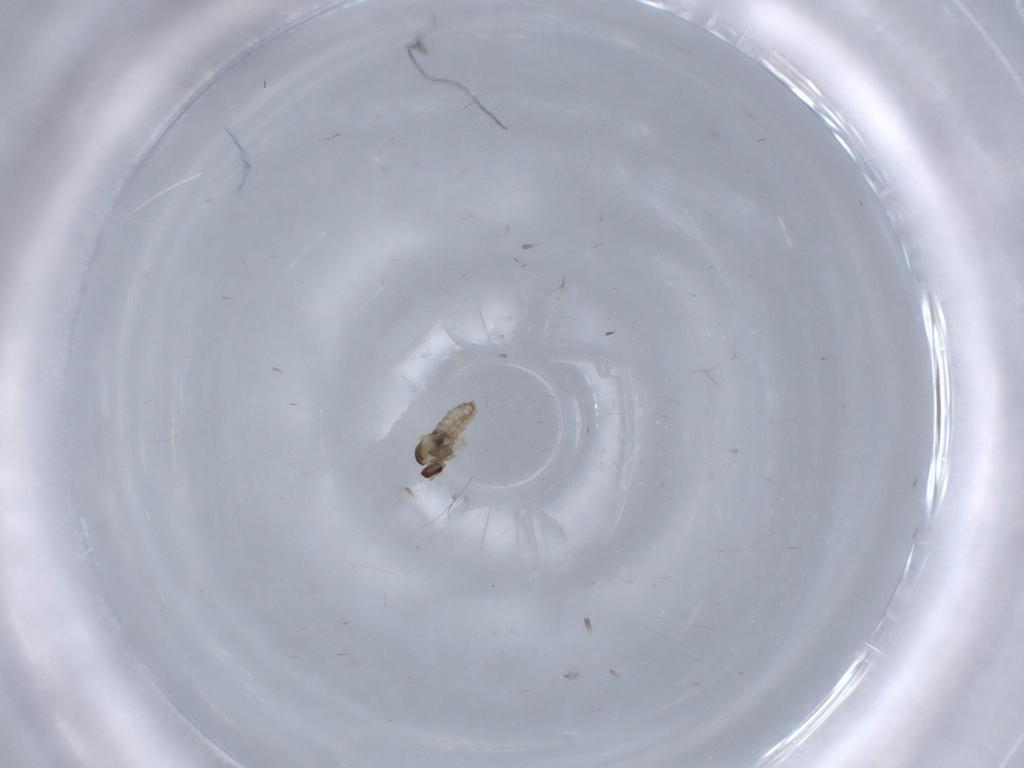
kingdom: Animalia
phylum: Arthropoda
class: Insecta
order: Diptera
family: Cecidomyiidae
